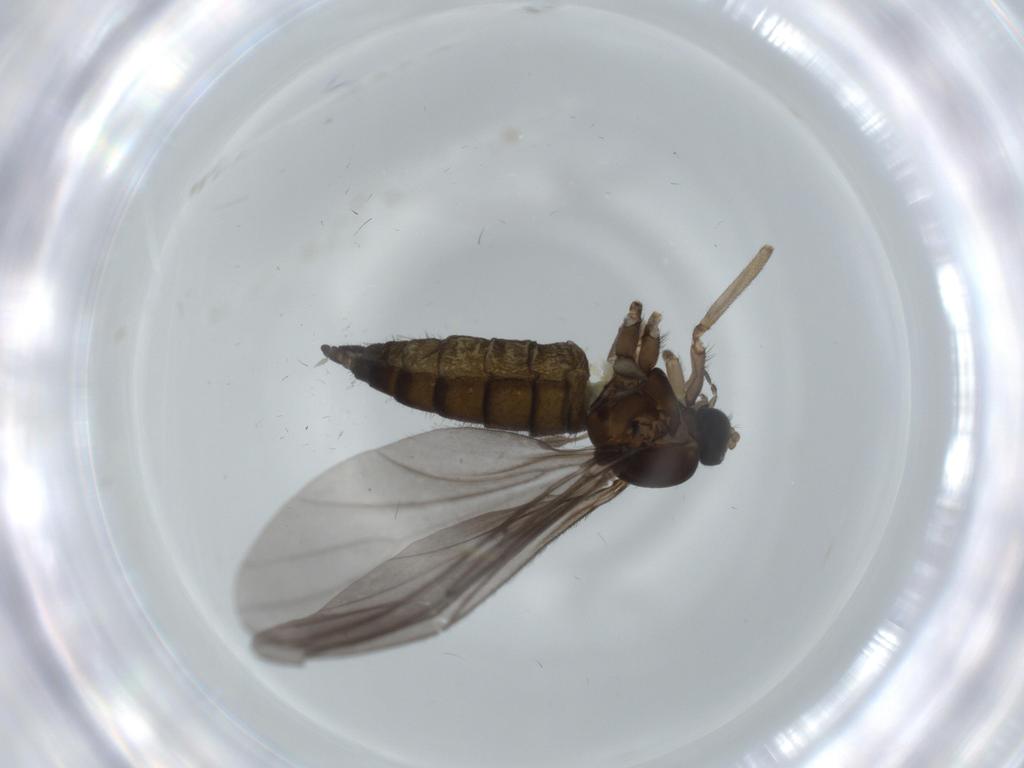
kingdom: Animalia
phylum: Arthropoda
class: Insecta
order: Diptera
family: Sciaridae
